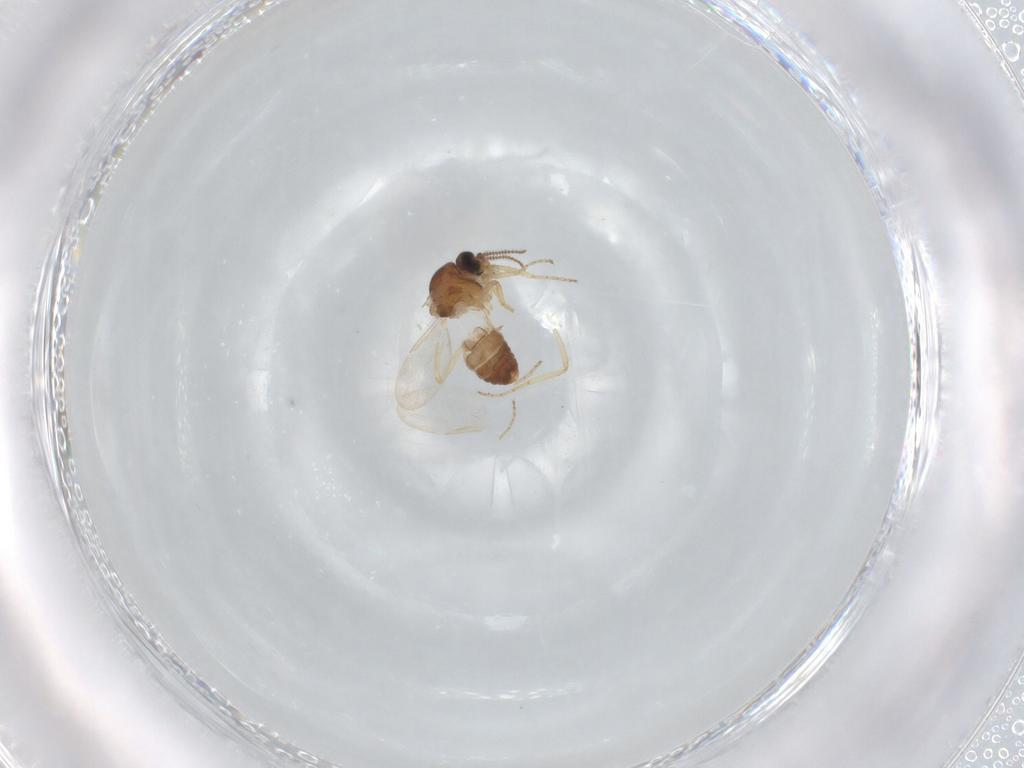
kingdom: Animalia
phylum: Arthropoda
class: Insecta
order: Diptera
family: Ceratopogonidae
